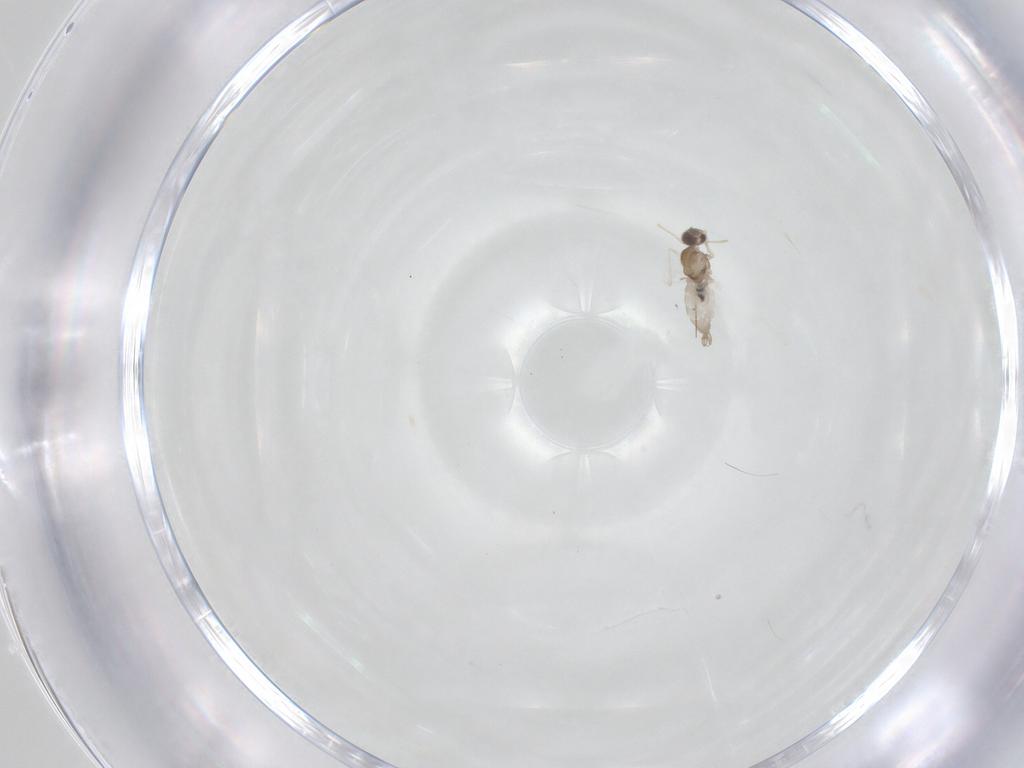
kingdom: Animalia
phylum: Arthropoda
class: Insecta
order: Diptera
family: Cecidomyiidae
